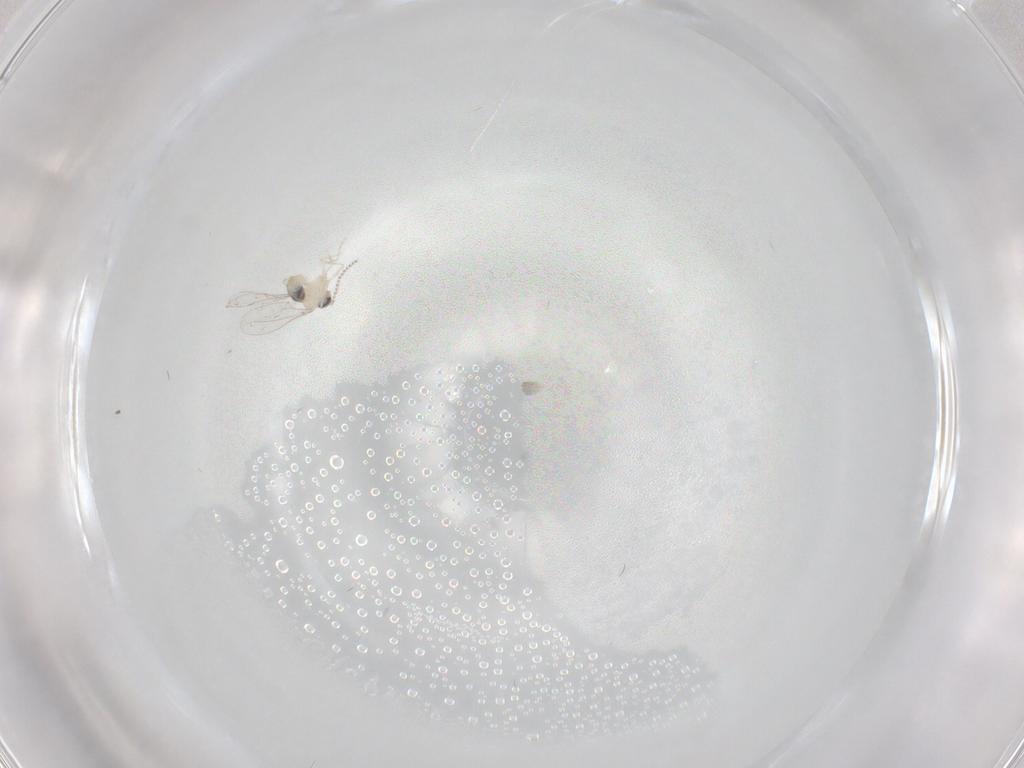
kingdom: Animalia
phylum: Arthropoda
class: Insecta
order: Diptera
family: Cecidomyiidae
